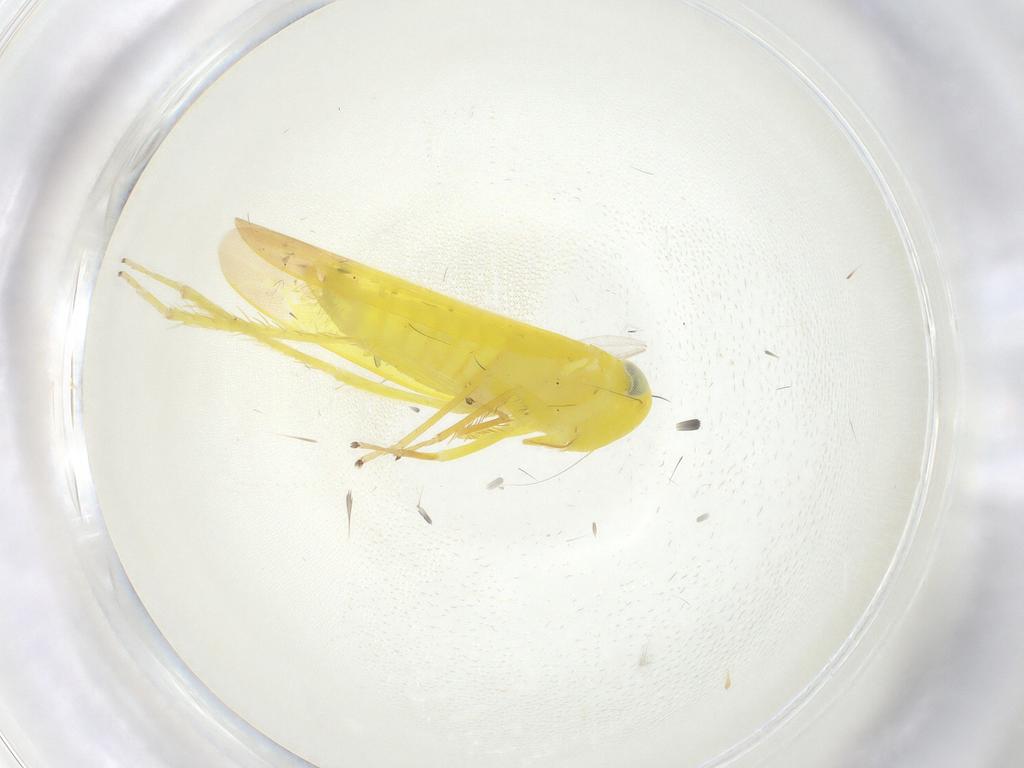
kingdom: Animalia
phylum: Arthropoda
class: Insecta
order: Hemiptera
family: Cicadellidae
